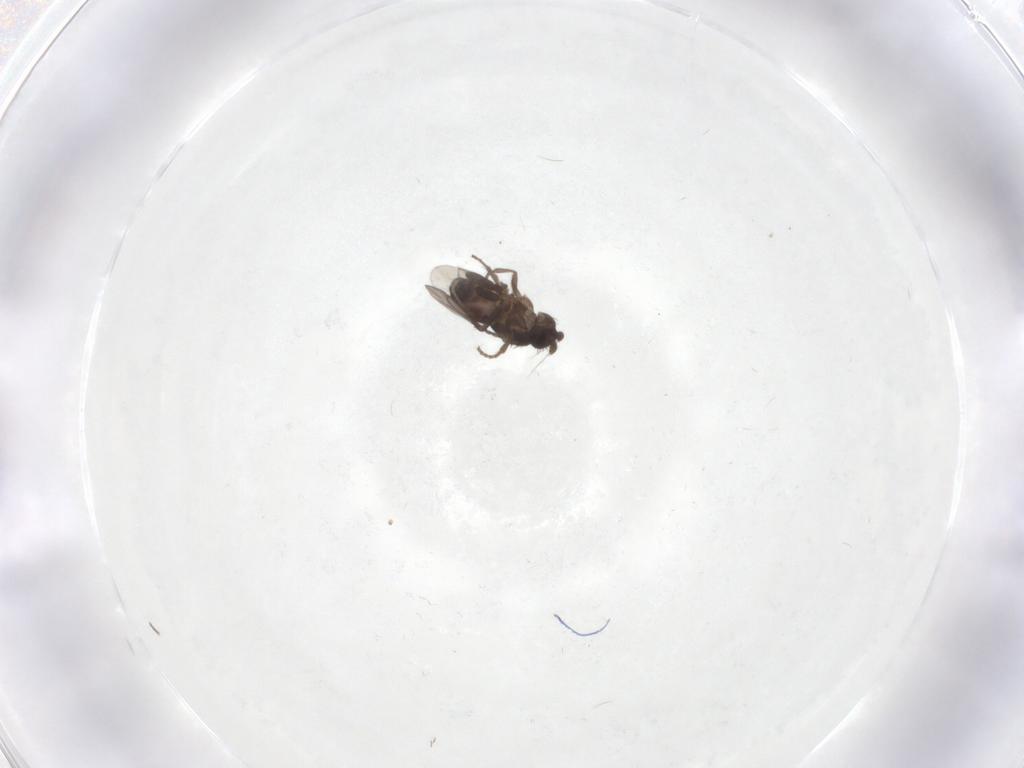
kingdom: Animalia
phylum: Arthropoda
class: Insecta
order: Diptera
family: Sphaeroceridae
